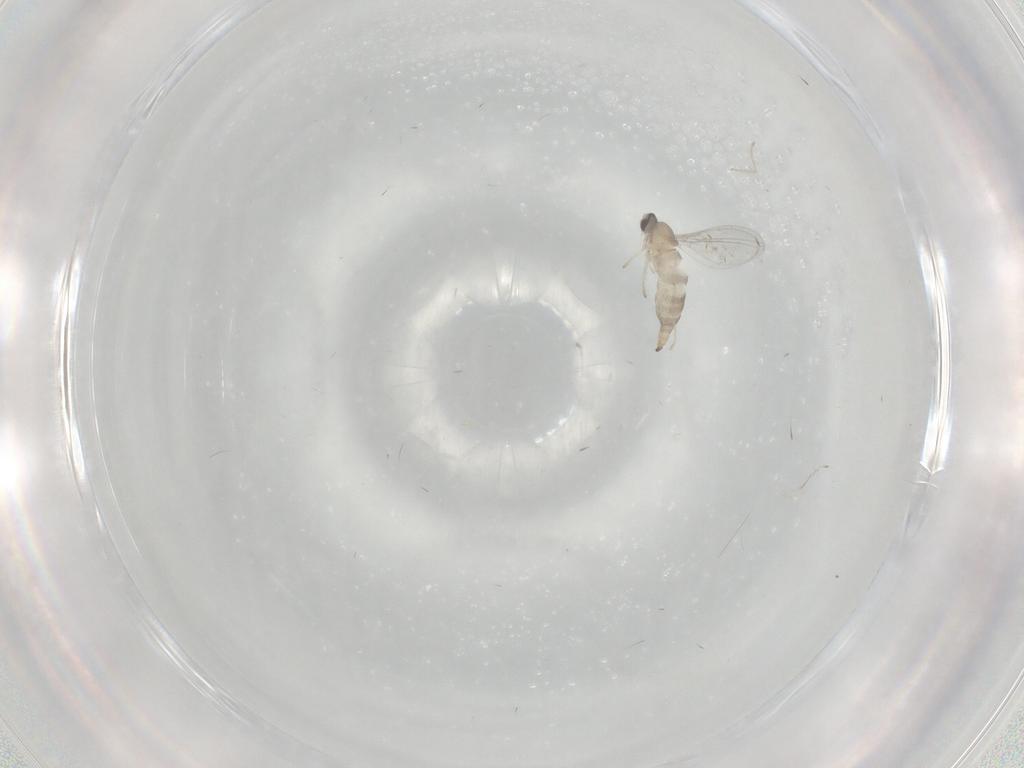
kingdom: Animalia
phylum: Arthropoda
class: Insecta
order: Diptera
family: Cecidomyiidae
